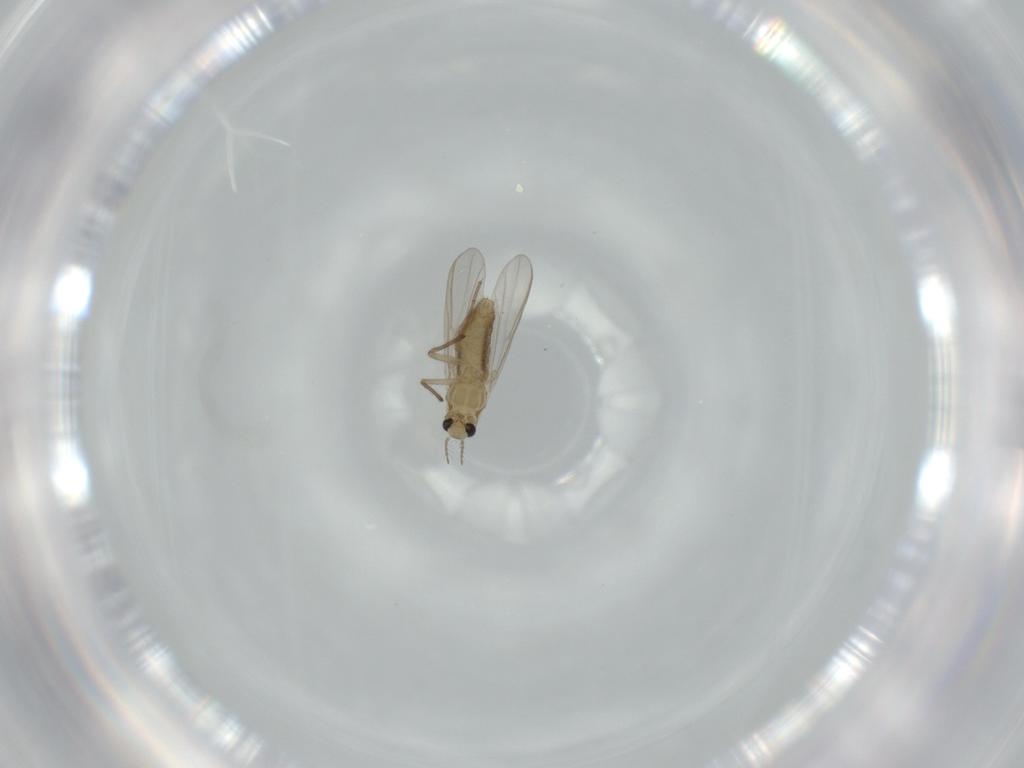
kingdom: Animalia
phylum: Arthropoda
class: Insecta
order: Diptera
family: Chironomidae
